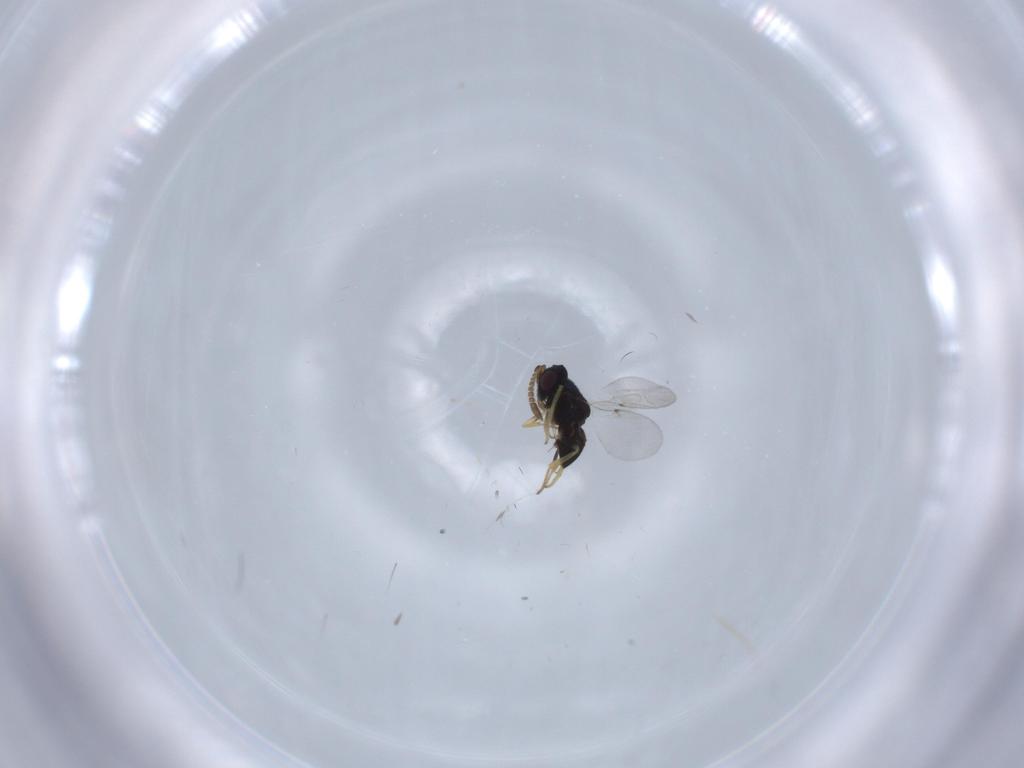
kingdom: Animalia
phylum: Arthropoda
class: Insecta
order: Hymenoptera
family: Encyrtidae
